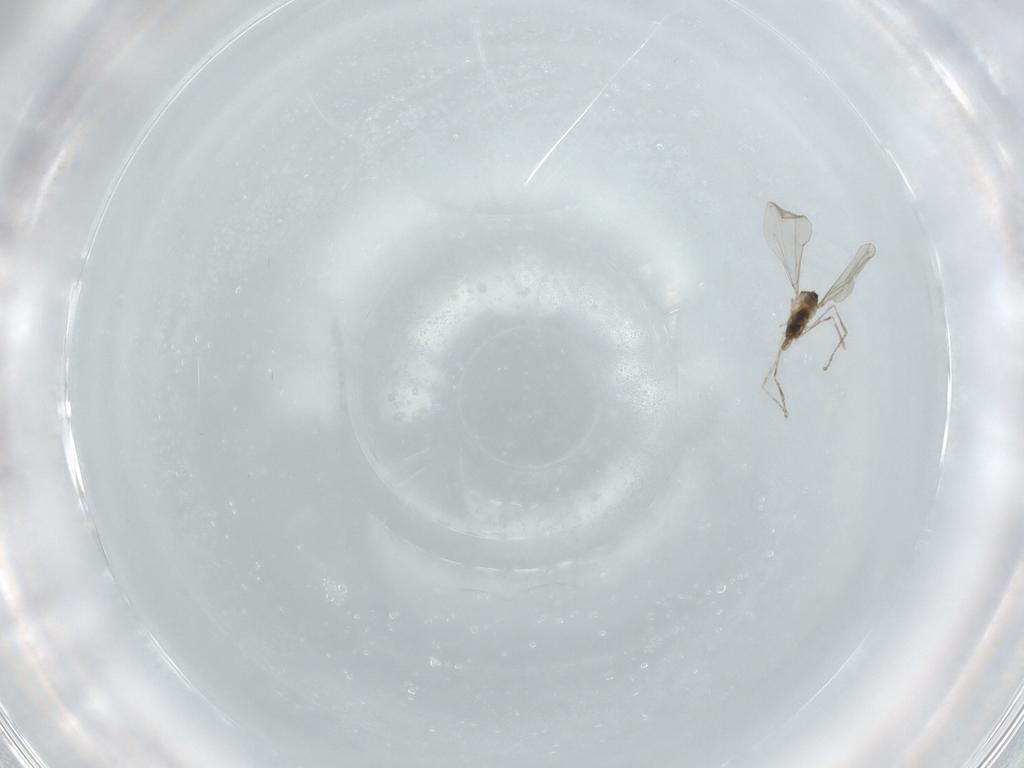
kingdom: Animalia
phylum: Arthropoda
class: Insecta
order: Diptera
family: Cecidomyiidae
